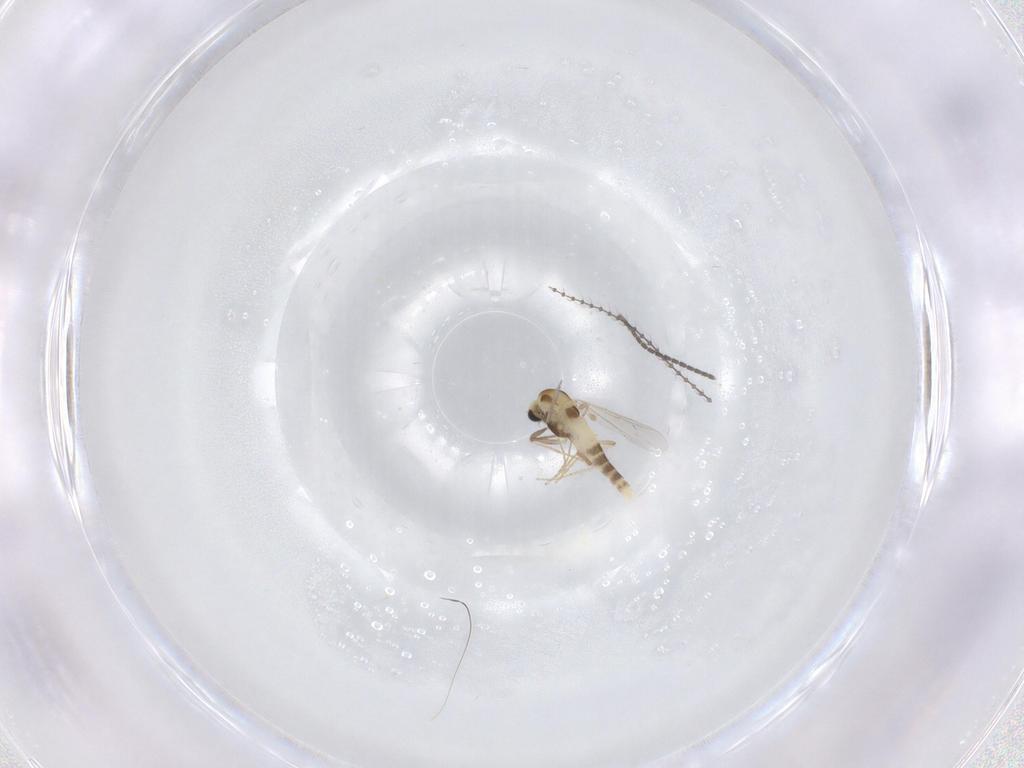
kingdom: Animalia
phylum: Arthropoda
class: Insecta
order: Diptera
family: Chironomidae
